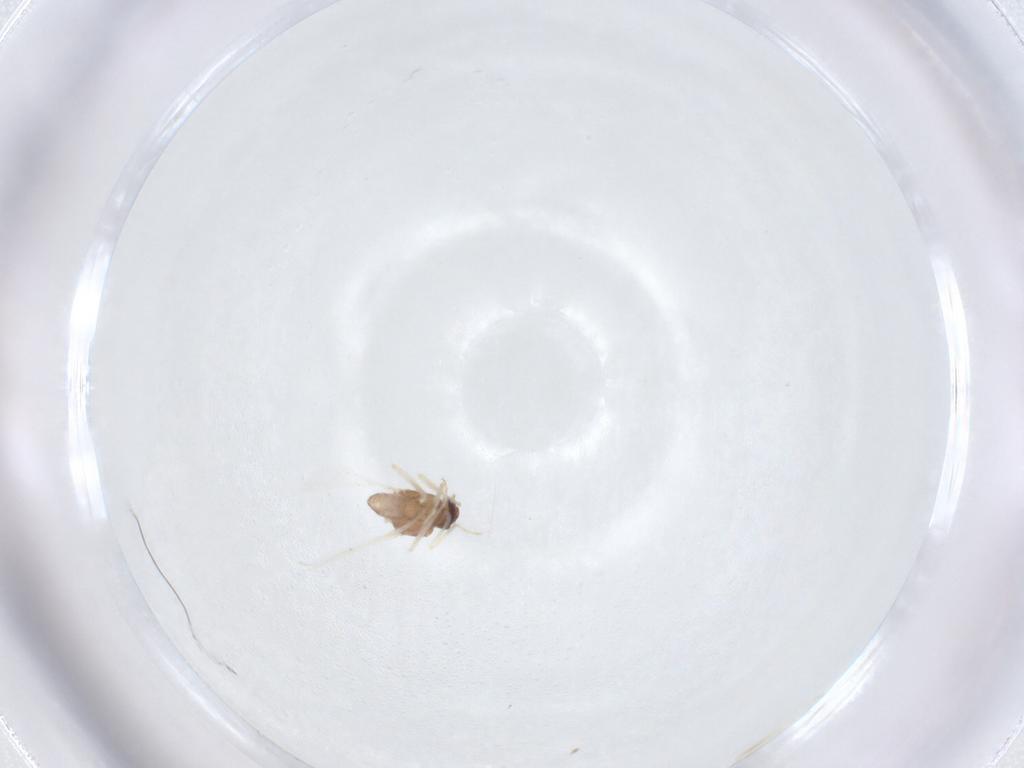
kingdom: Animalia
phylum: Arthropoda
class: Insecta
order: Diptera
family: Ceratopogonidae
